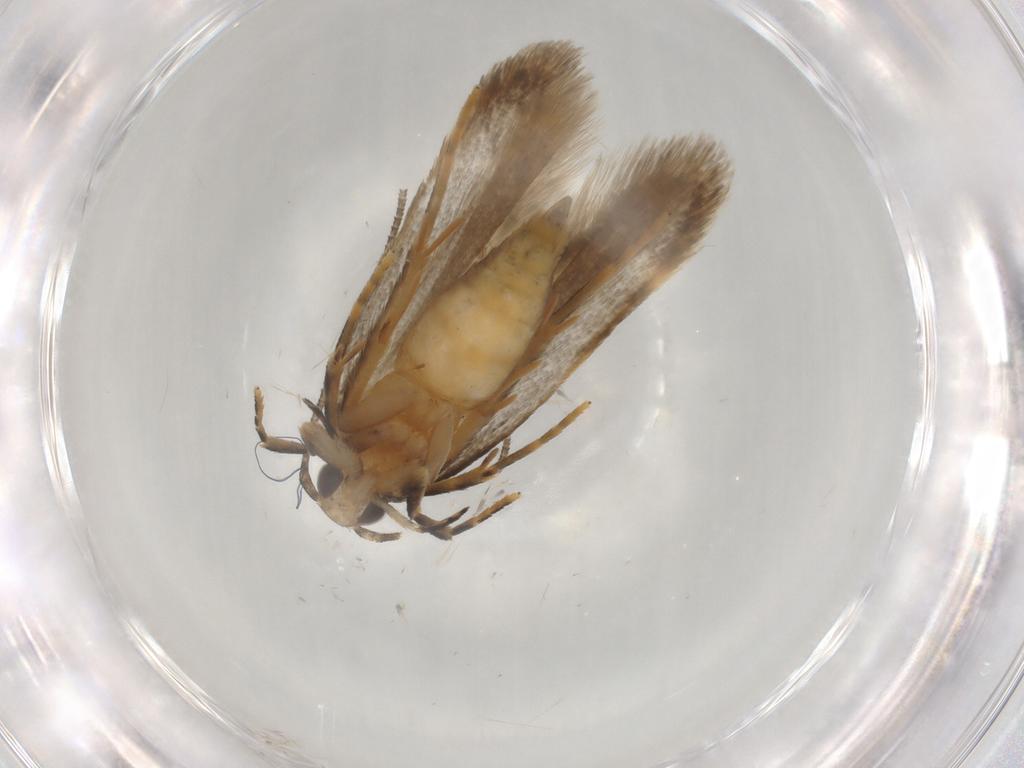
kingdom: Animalia
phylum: Arthropoda
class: Insecta
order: Lepidoptera
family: Autostichidae
